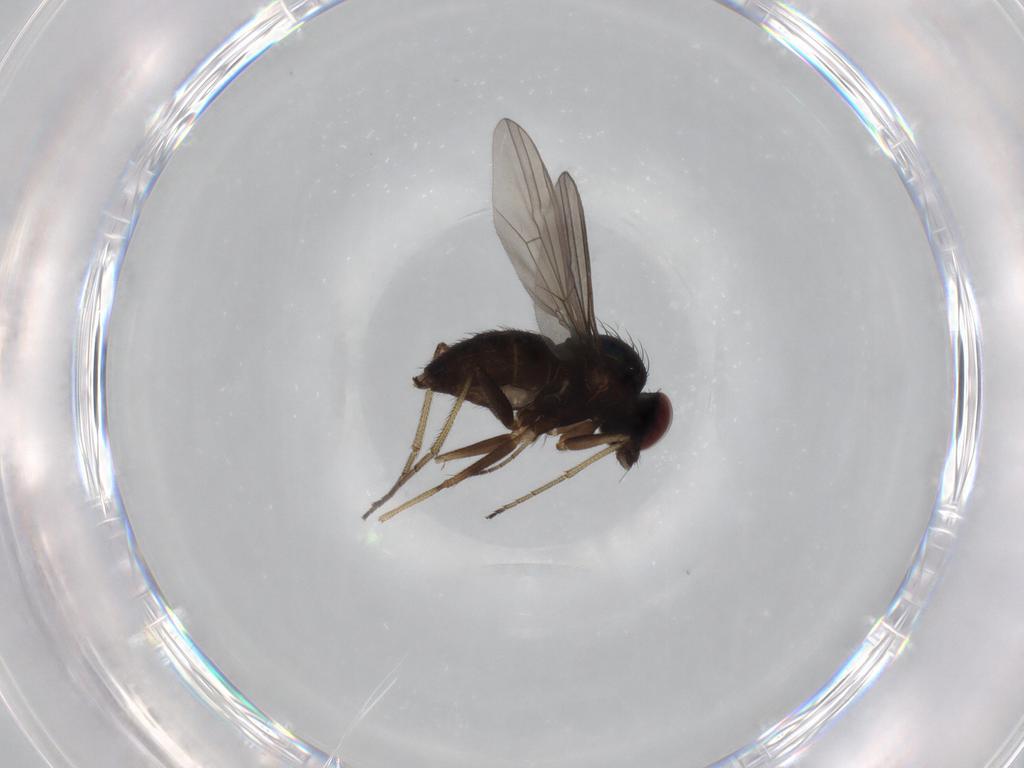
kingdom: Animalia
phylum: Arthropoda
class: Insecta
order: Diptera
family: Dolichopodidae
